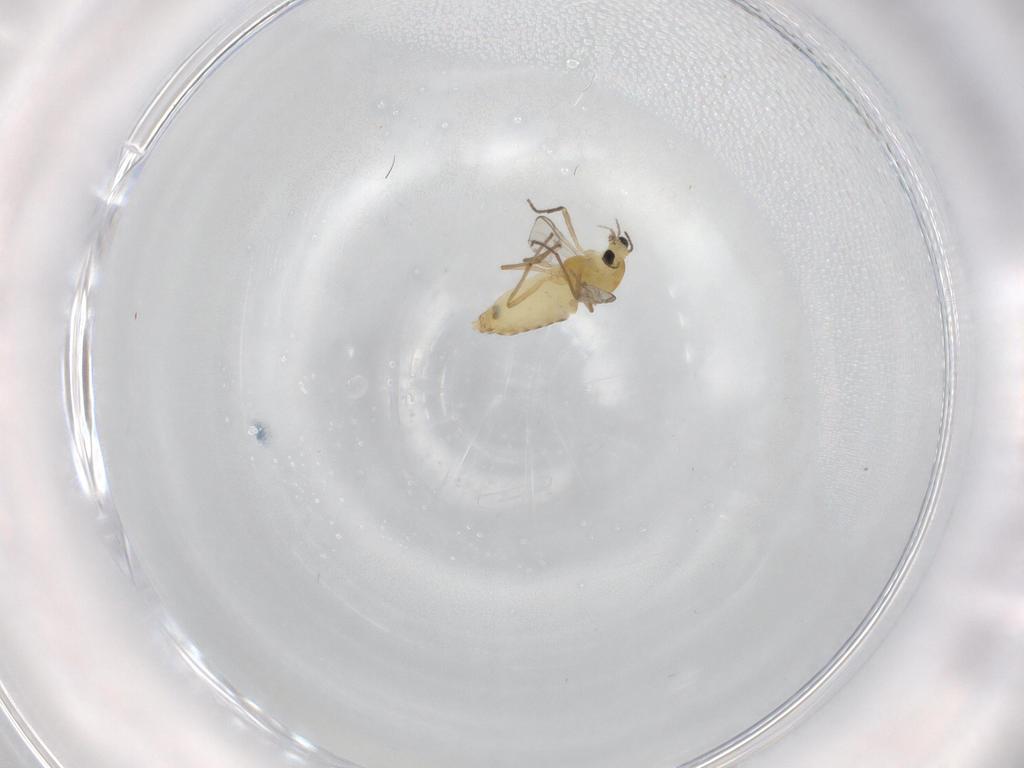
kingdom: Animalia
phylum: Arthropoda
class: Insecta
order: Diptera
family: Chironomidae
